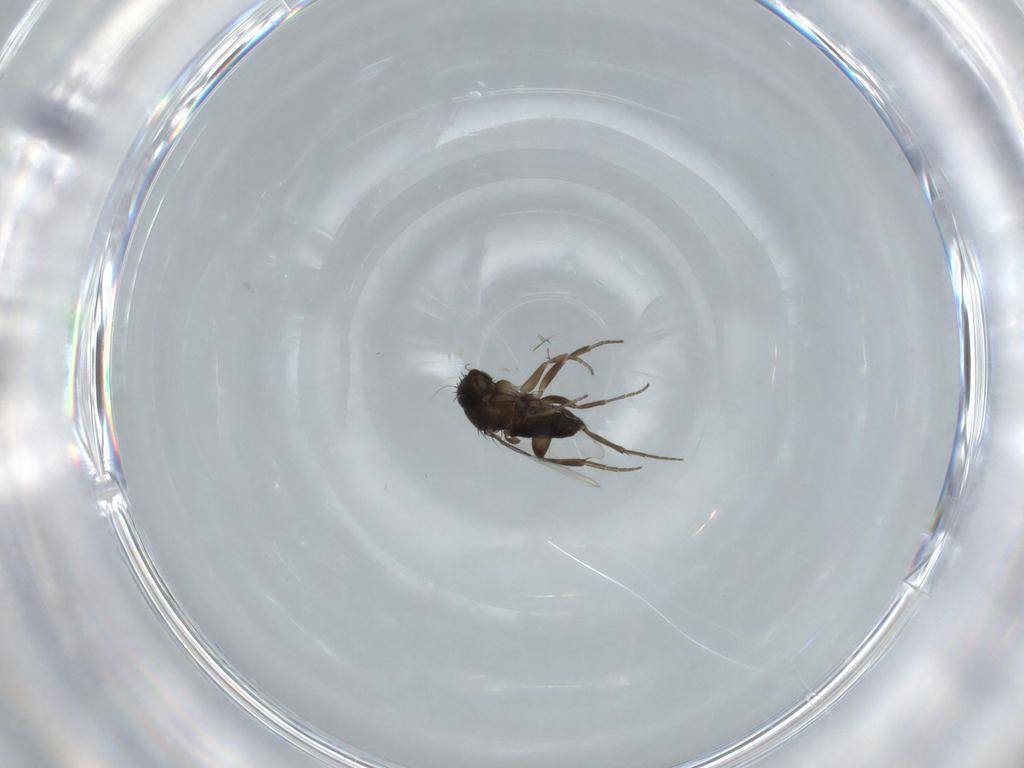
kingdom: Animalia
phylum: Arthropoda
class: Insecta
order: Diptera
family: Phoridae
